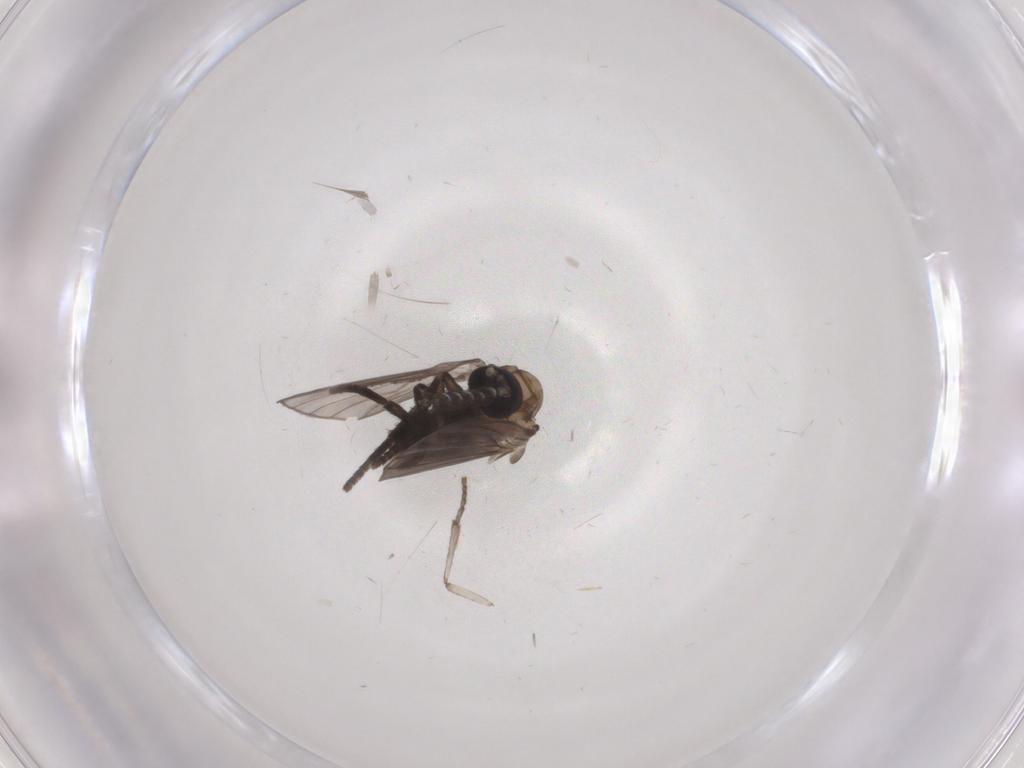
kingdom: Animalia
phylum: Arthropoda
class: Insecta
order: Diptera
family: Psychodidae
